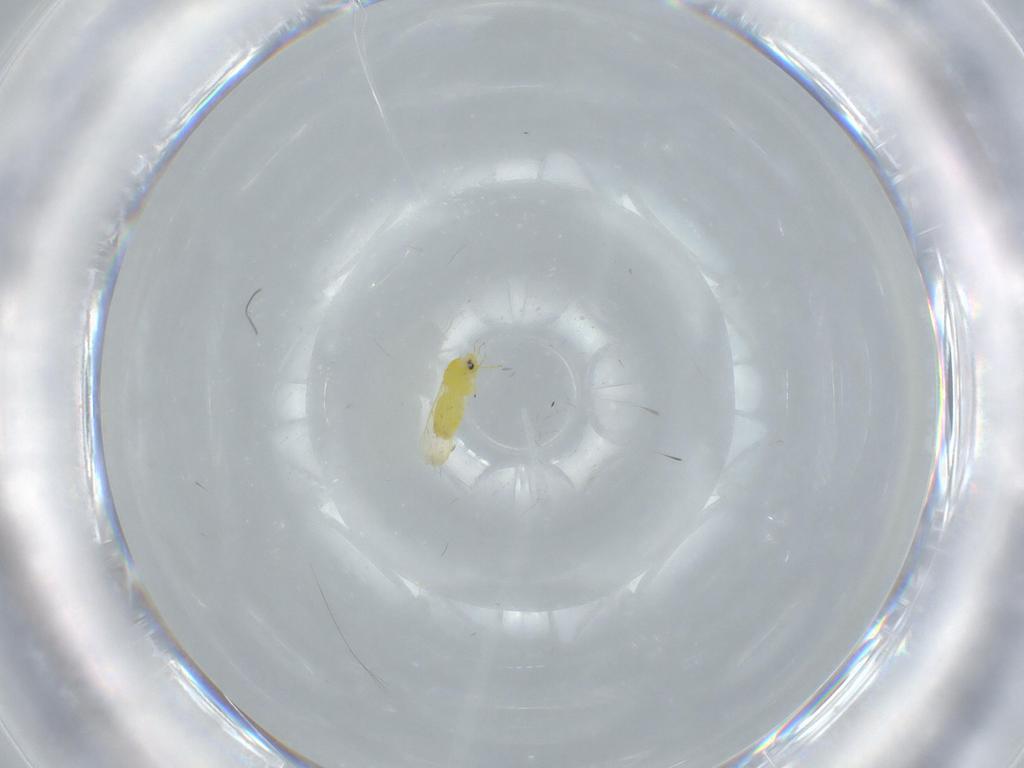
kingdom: Animalia
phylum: Arthropoda
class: Insecta
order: Hemiptera
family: Aleyrodidae
